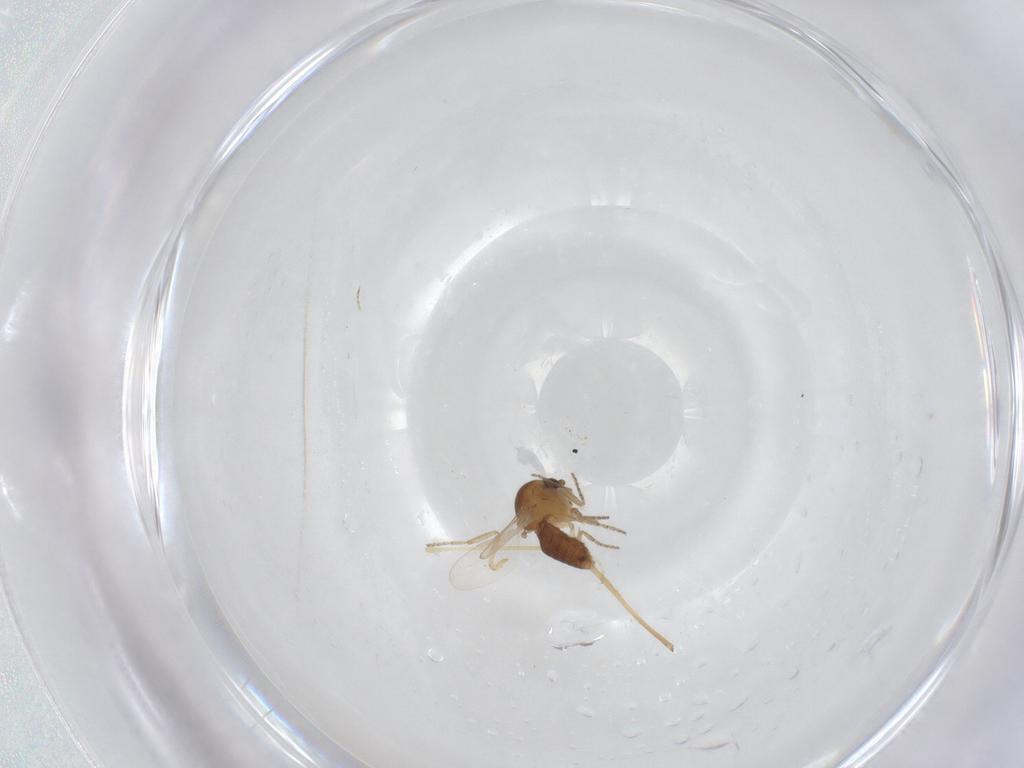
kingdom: Animalia
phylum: Arthropoda
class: Insecta
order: Diptera
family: Ceratopogonidae
